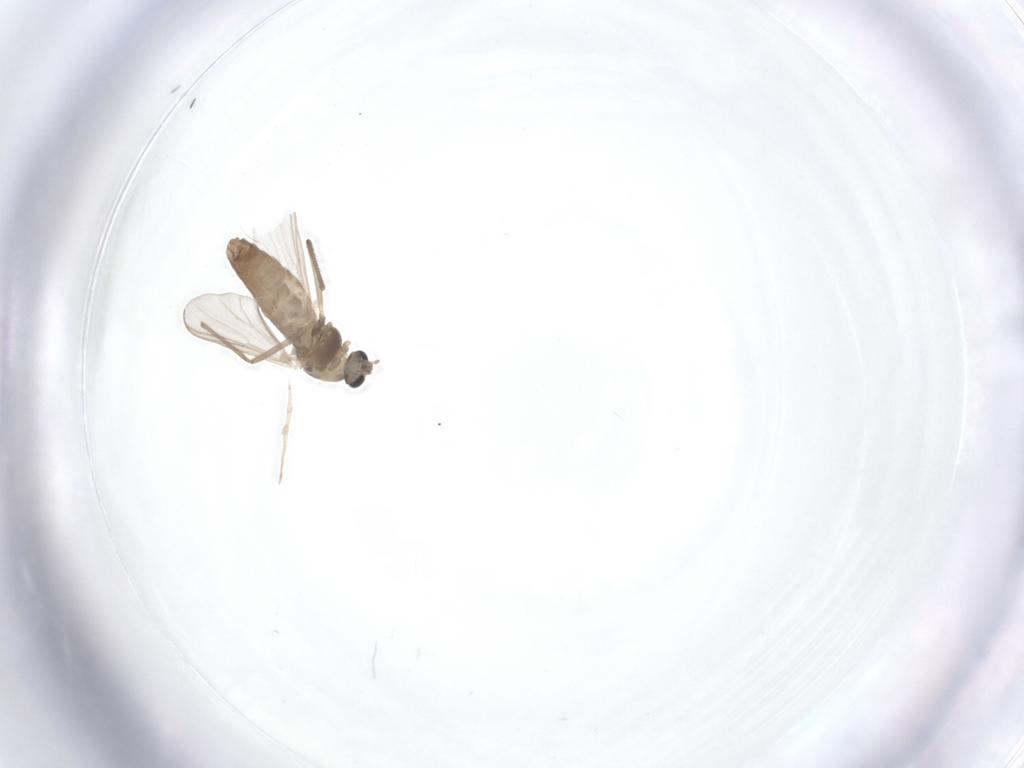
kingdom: Animalia
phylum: Arthropoda
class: Insecta
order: Diptera
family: Chironomidae
